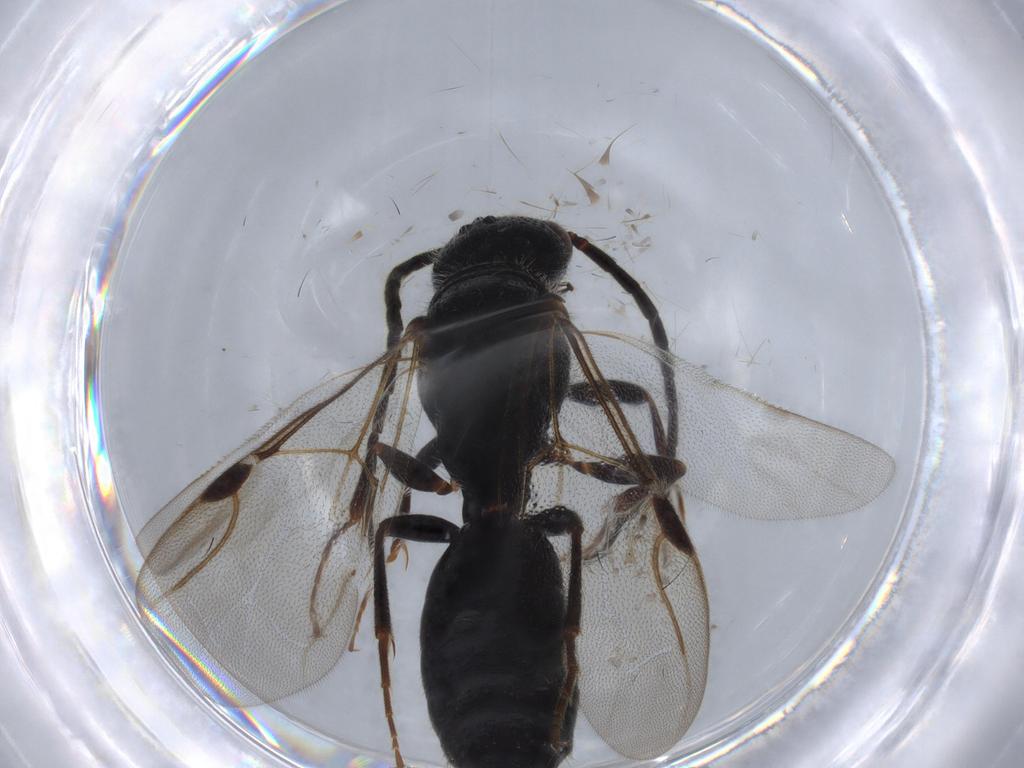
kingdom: Animalia
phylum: Arthropoda
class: Insecta
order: Hymenoptera
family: Bethylidae
